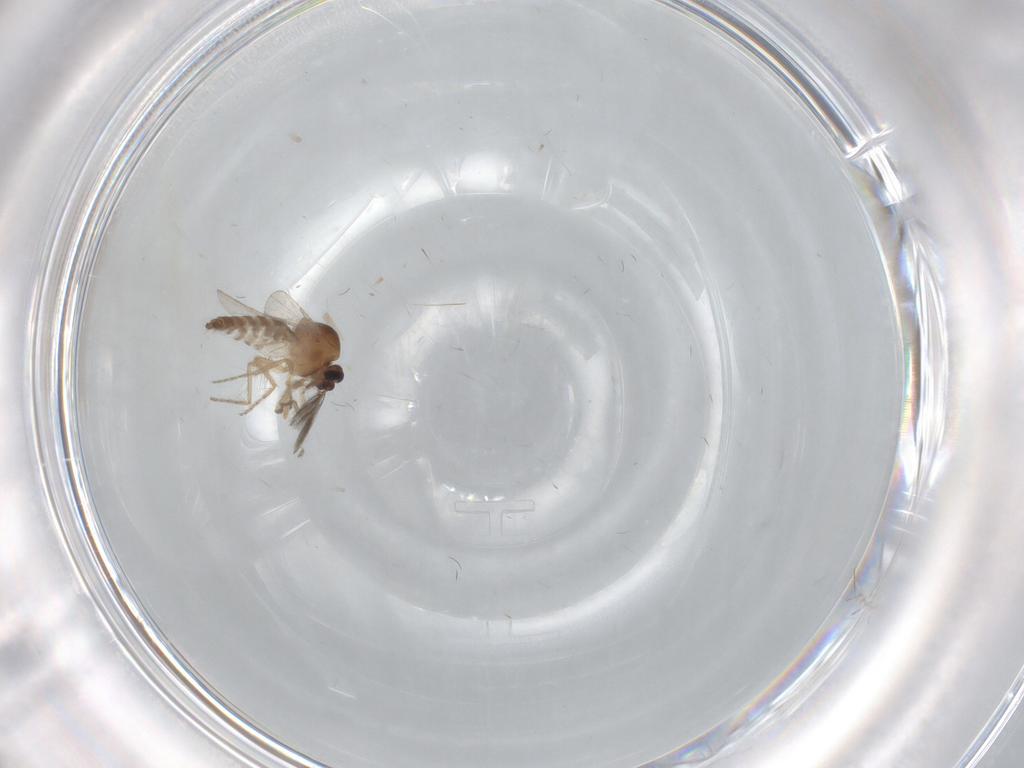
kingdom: Animalia
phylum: Arthropoda
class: Insecta
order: Diptera
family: Ceratopogonidae
